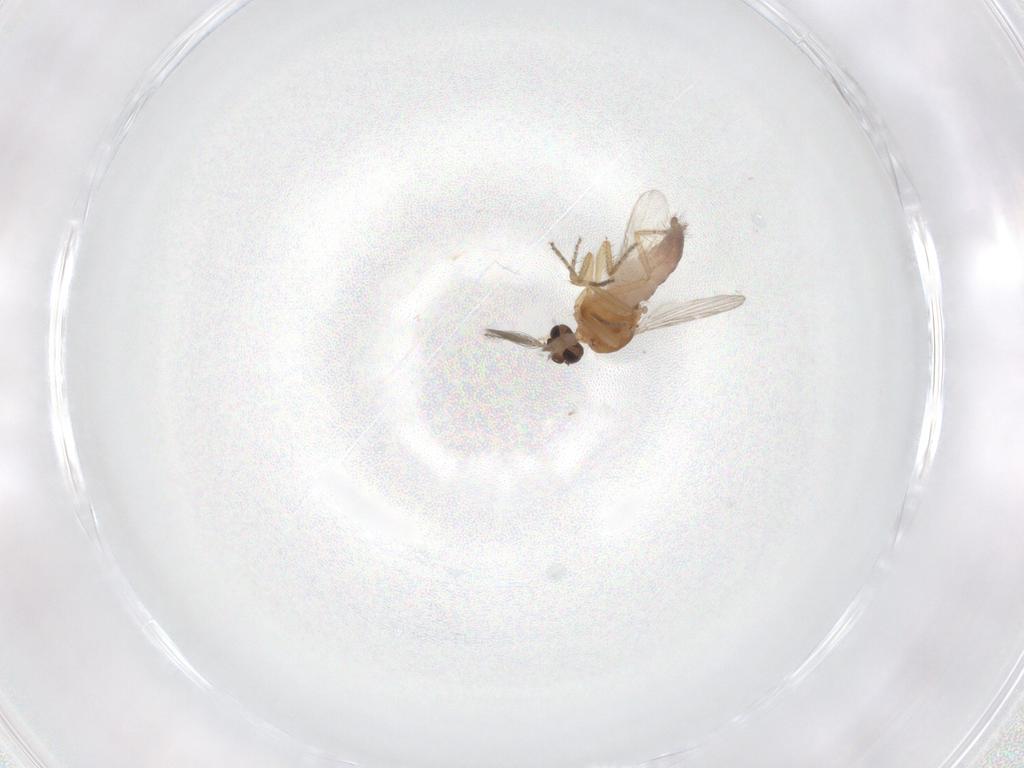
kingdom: Animalia
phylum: Arthropoda
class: Insecta
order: Diptera
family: Ceratopogonidae
